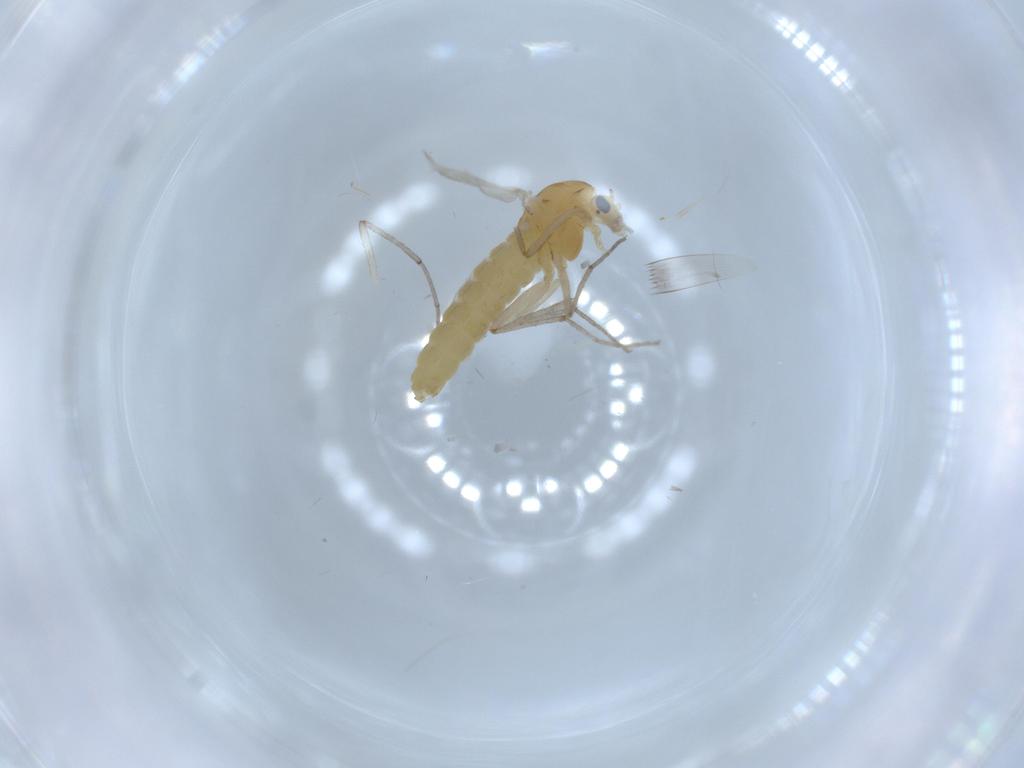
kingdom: Animalia
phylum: Arthropoda
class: Insecta
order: Diptera
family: Chironomidae
